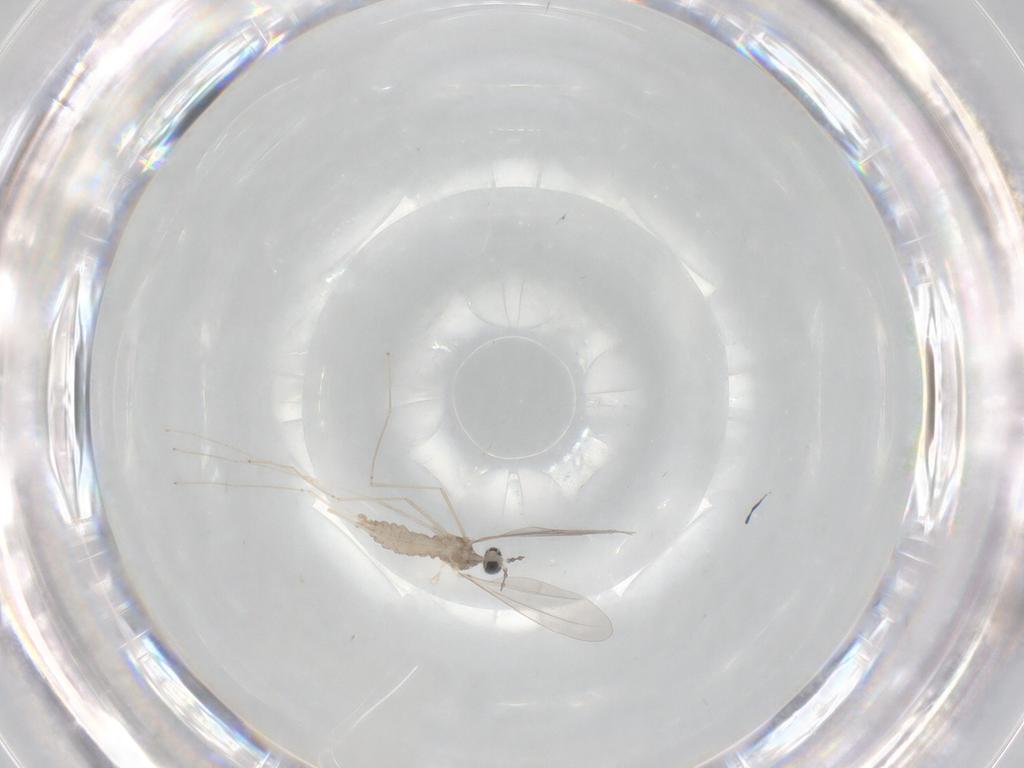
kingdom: Animalia
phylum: Arthropoda
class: Insecta
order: Diptera
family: Cecidomyiidae
